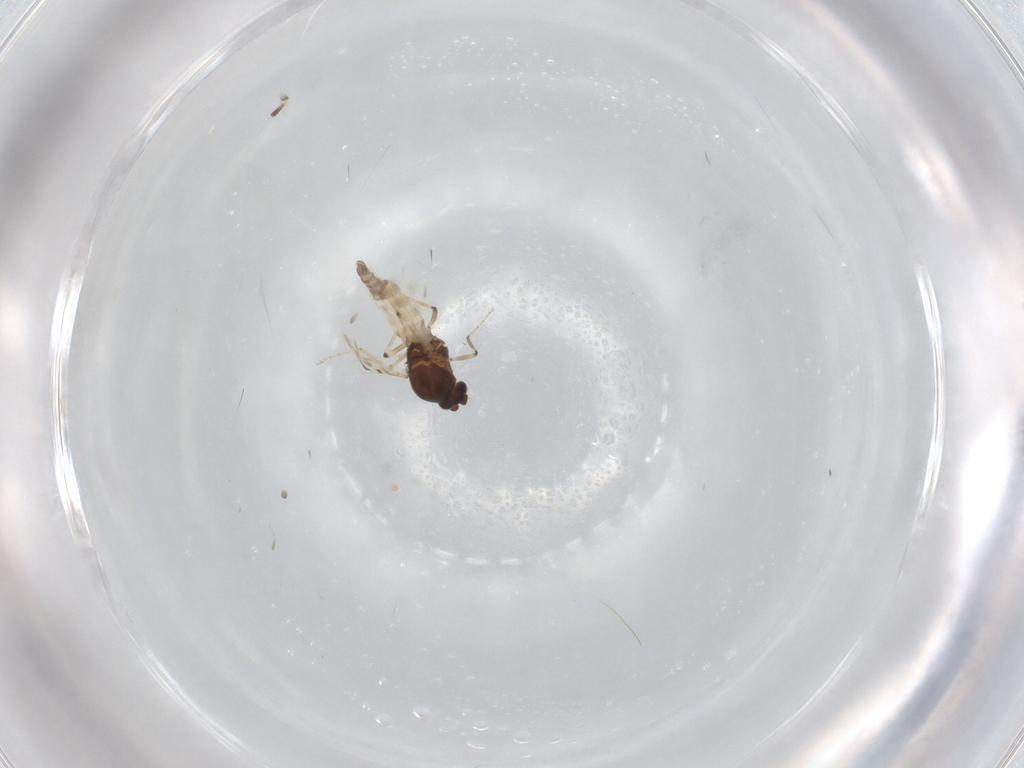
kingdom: Animalia
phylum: Arthropoda
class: Insecta
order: Diptera
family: Ceratopogonidae
